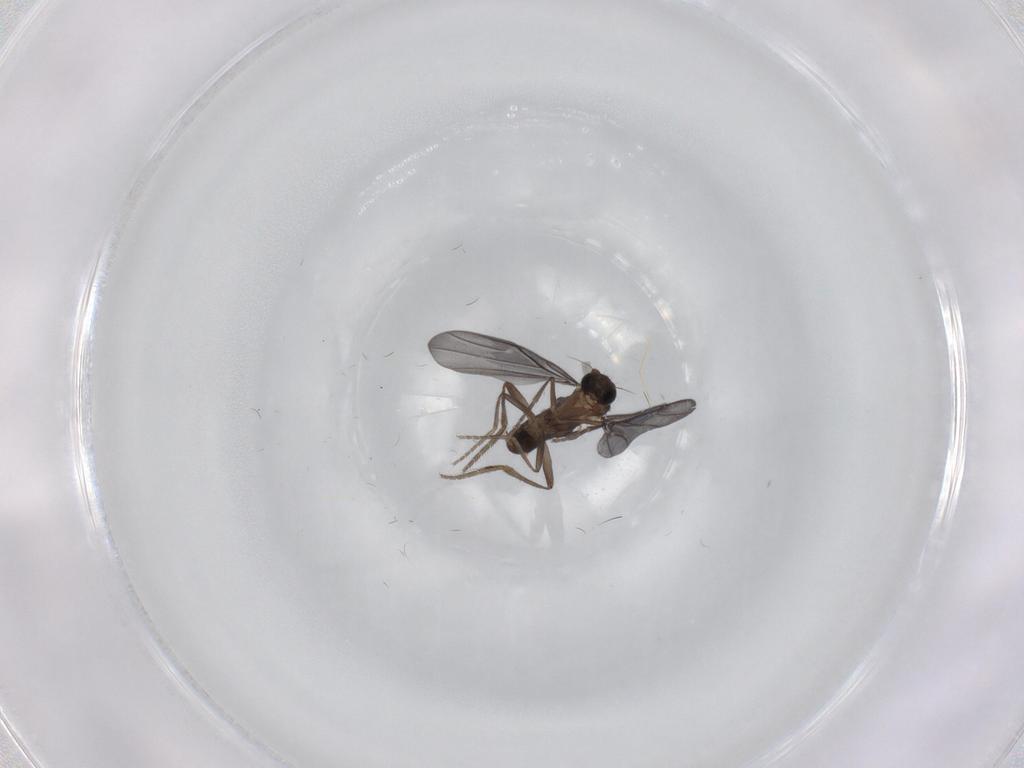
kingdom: Animalia
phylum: Arthropoda
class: Insecta
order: Diptera
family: Phoridae
